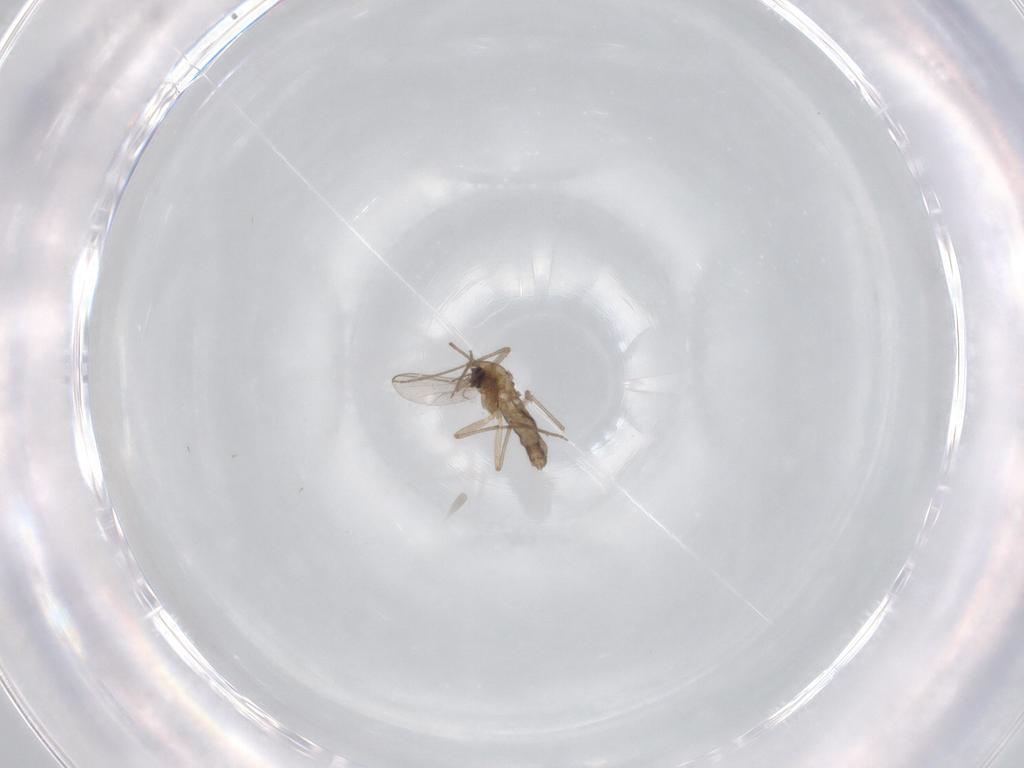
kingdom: Animalia
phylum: Arthropoda
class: Insecta
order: Diptera
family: Chironomidae
